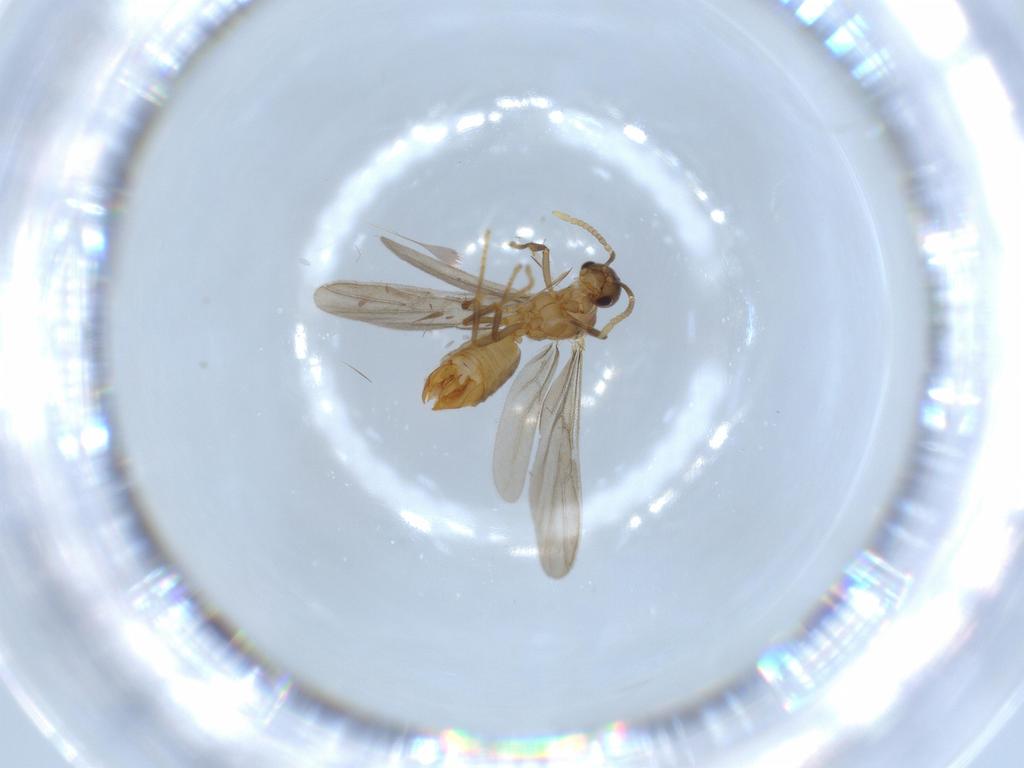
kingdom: Animalia
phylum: Arthropoda
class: Insecta
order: Hymenoptera
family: Formicidae
